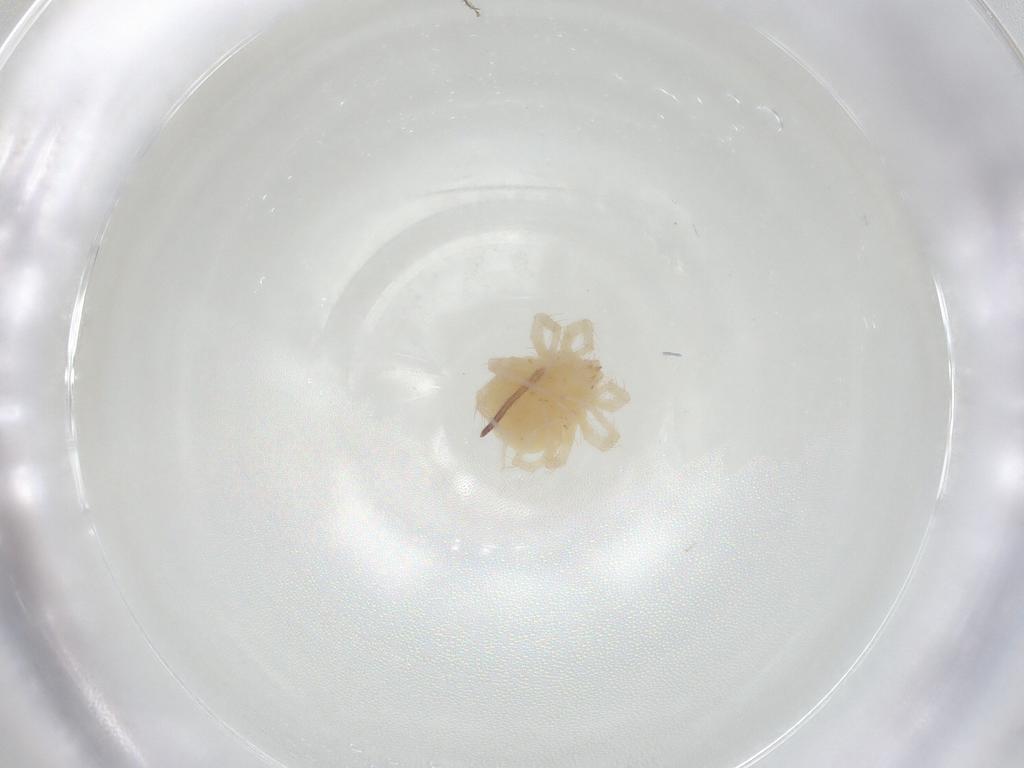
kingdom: Animalia
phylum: Arthropoda
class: Arachnida
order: Trombidiformes
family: Anystidae
